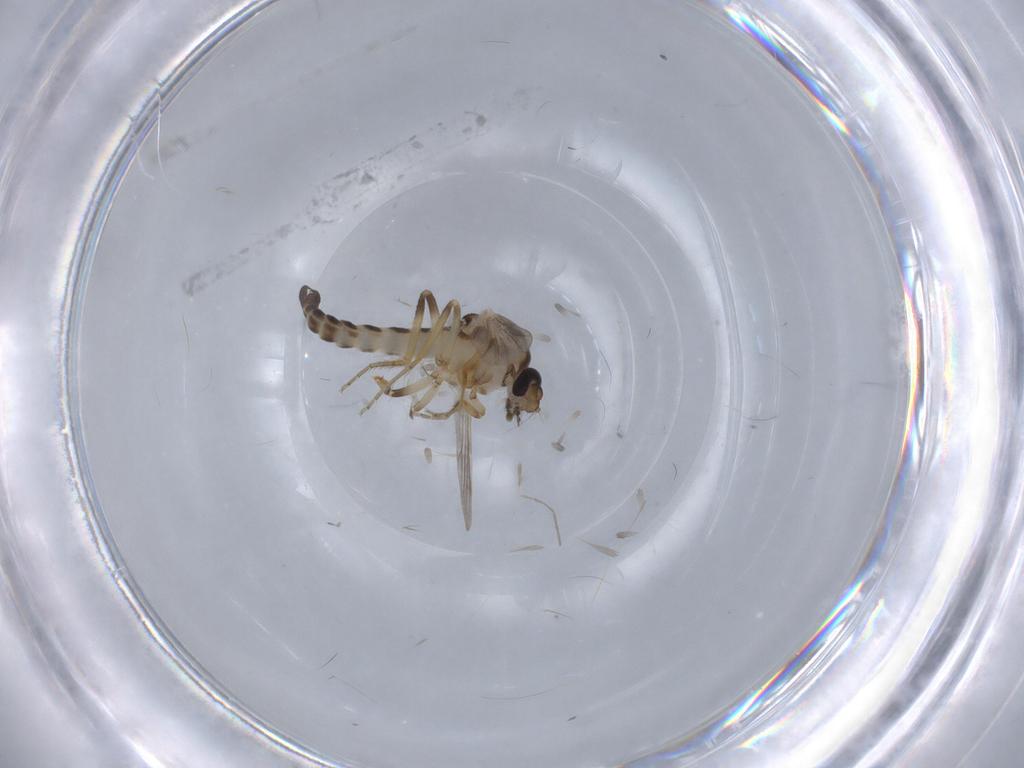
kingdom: Animalia
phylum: Arthropoda
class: Insecta
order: Diptera
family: Ceratopogonidae
